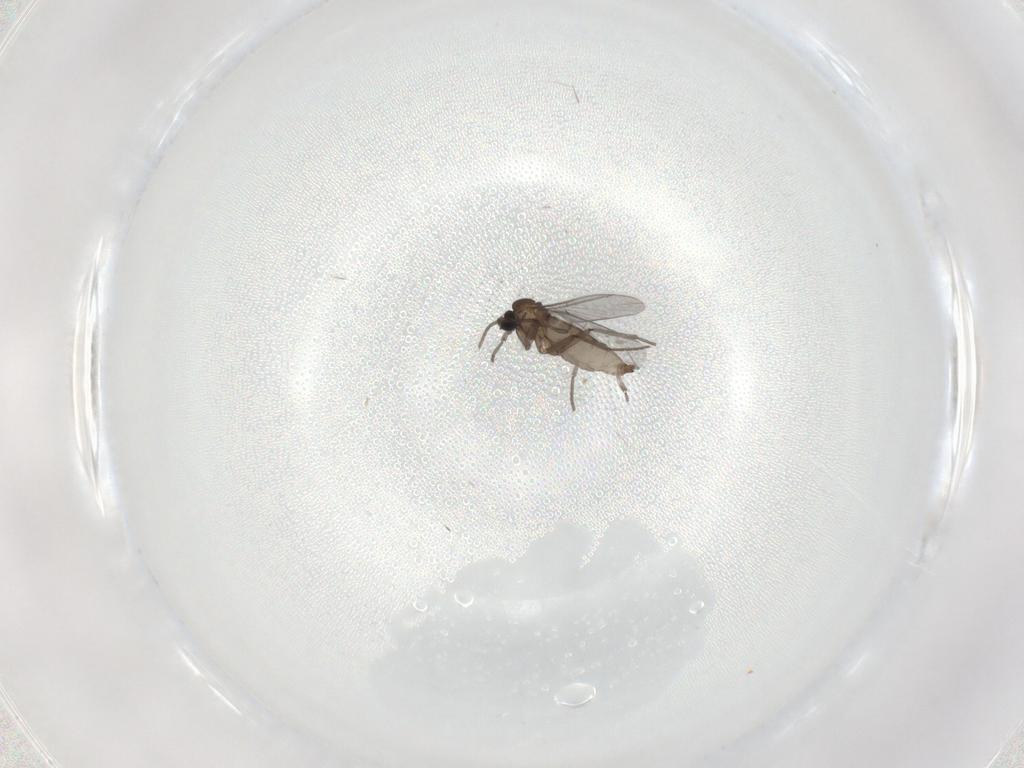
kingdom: Animalia
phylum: Arthropoda
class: Insecta
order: Diptera
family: Sciaridae
